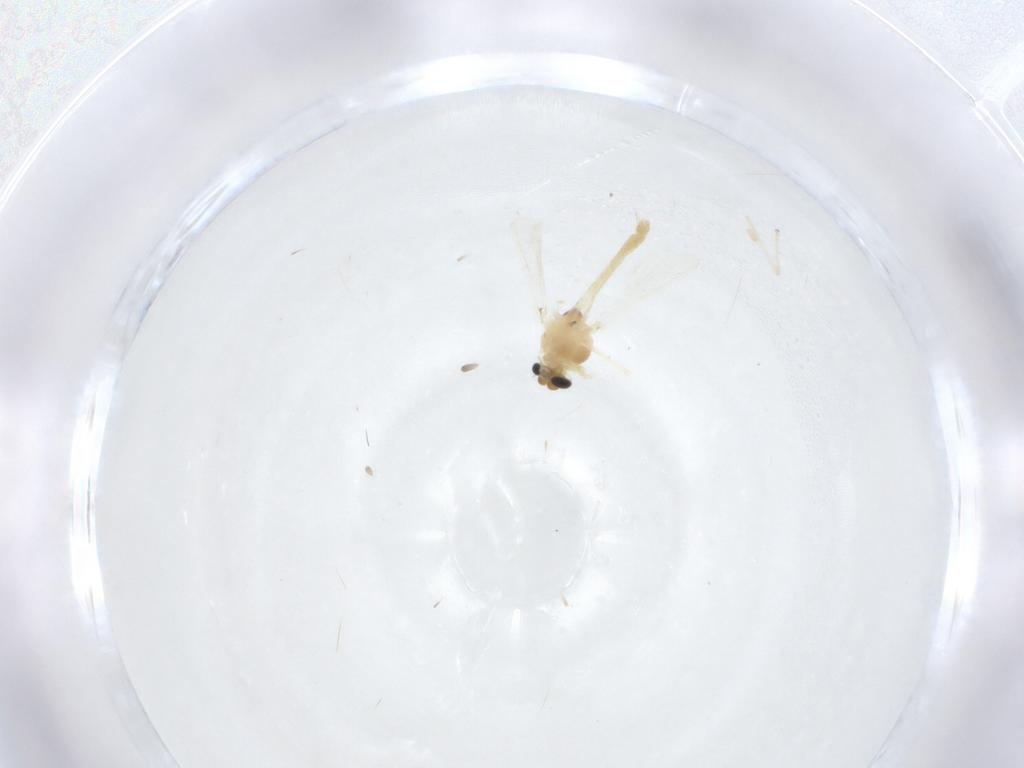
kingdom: Animalia
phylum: Arthropoda
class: Insecta
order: Diptera
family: Chironomidae
